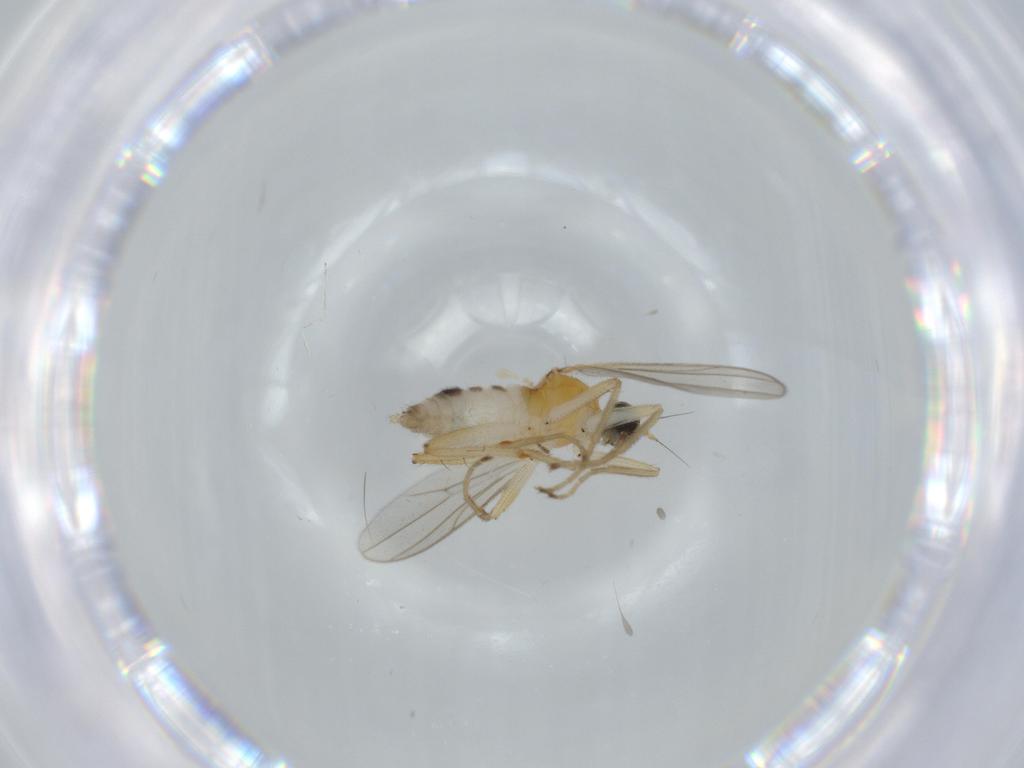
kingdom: Animalia
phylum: Arthropoda
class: Insecta
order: Diptera
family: Hybotidae
